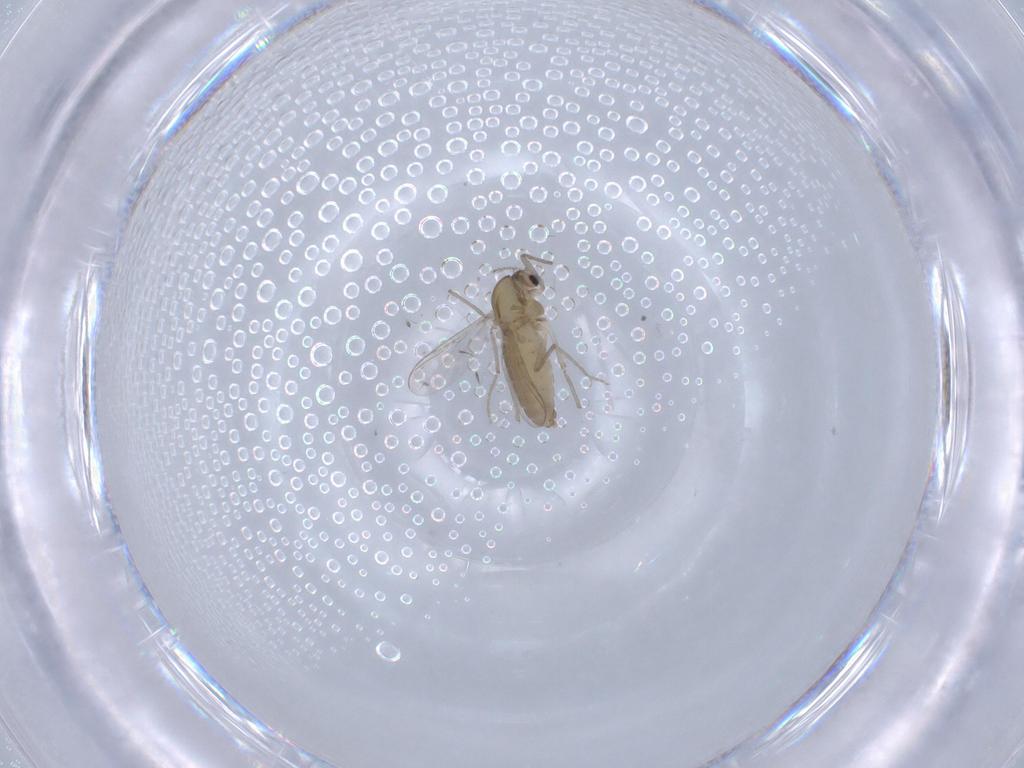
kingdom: Animalia
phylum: Arthropoda
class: Insecta
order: Diptera
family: Chironomidae
